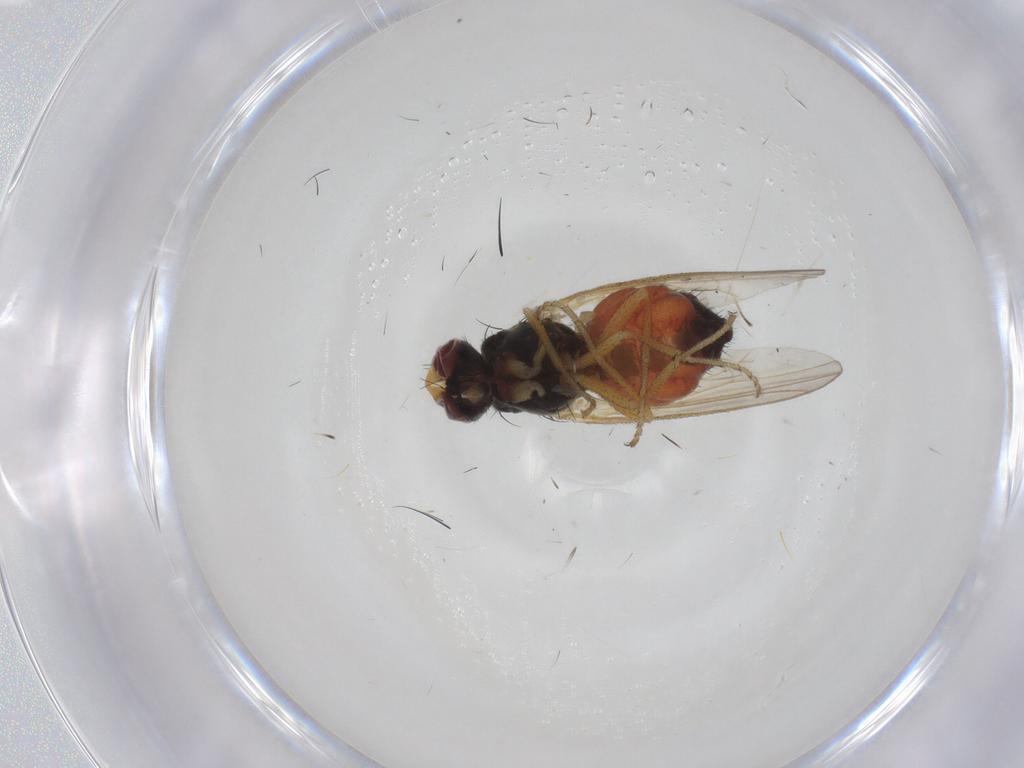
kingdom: Animalia
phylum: Arthropoda
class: Insecta
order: Diptera
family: Heleomyzidae
